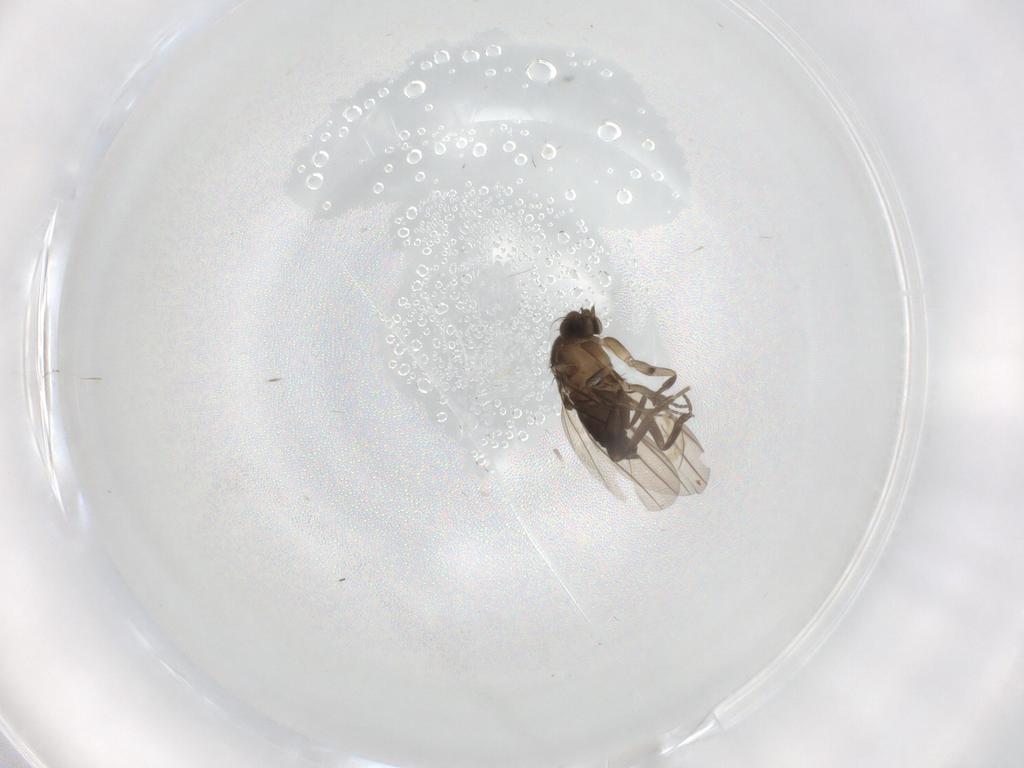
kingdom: Animalia
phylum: Arthropoda
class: Insecta
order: Diptera
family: Phoridae
